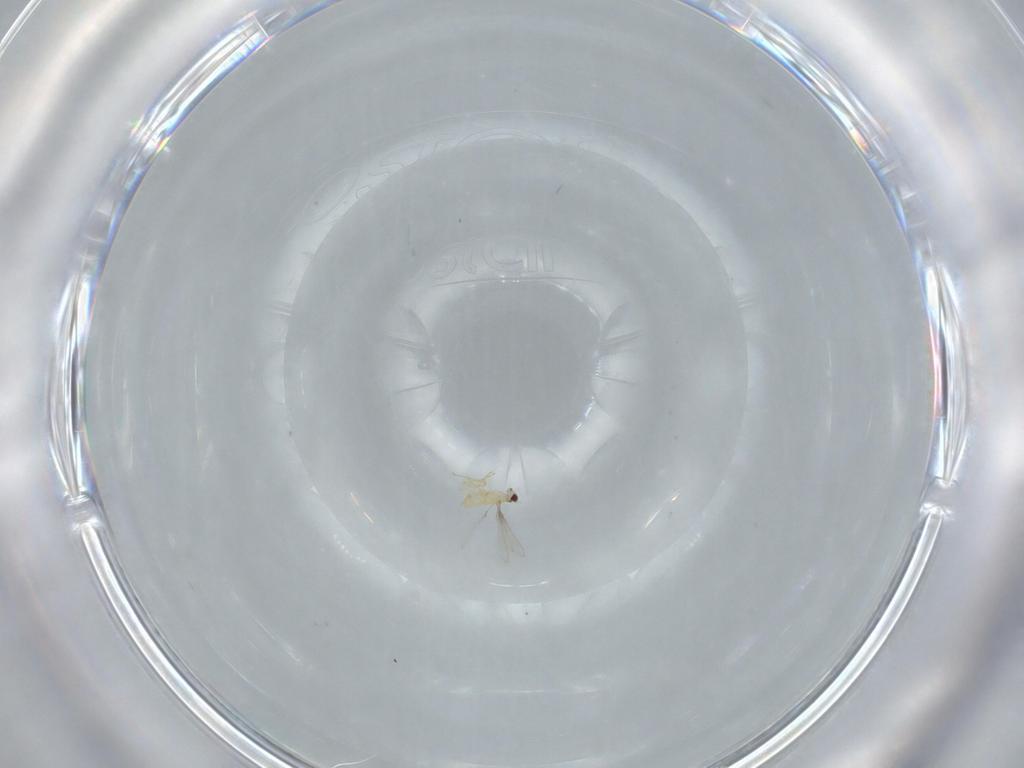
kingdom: Animalia
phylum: Arthropoda
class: Insecta
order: Hymenoptera
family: Mymaridae
